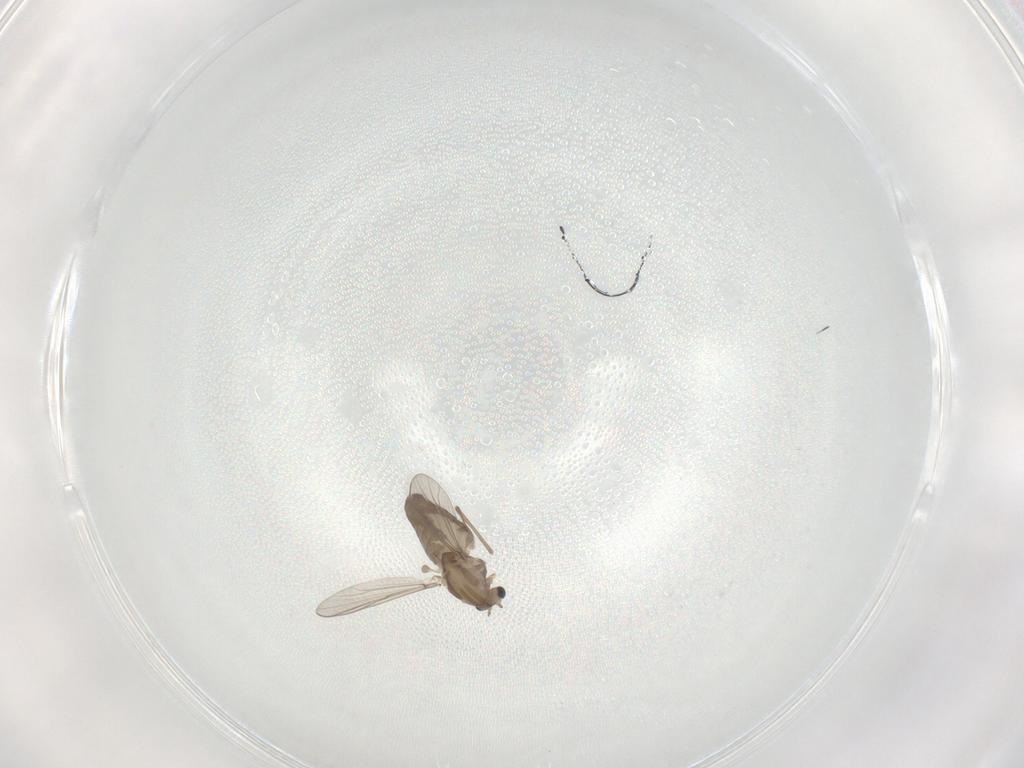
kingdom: Animalia
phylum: Arthropoda
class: Insecta
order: Diptera
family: Chironomidae
